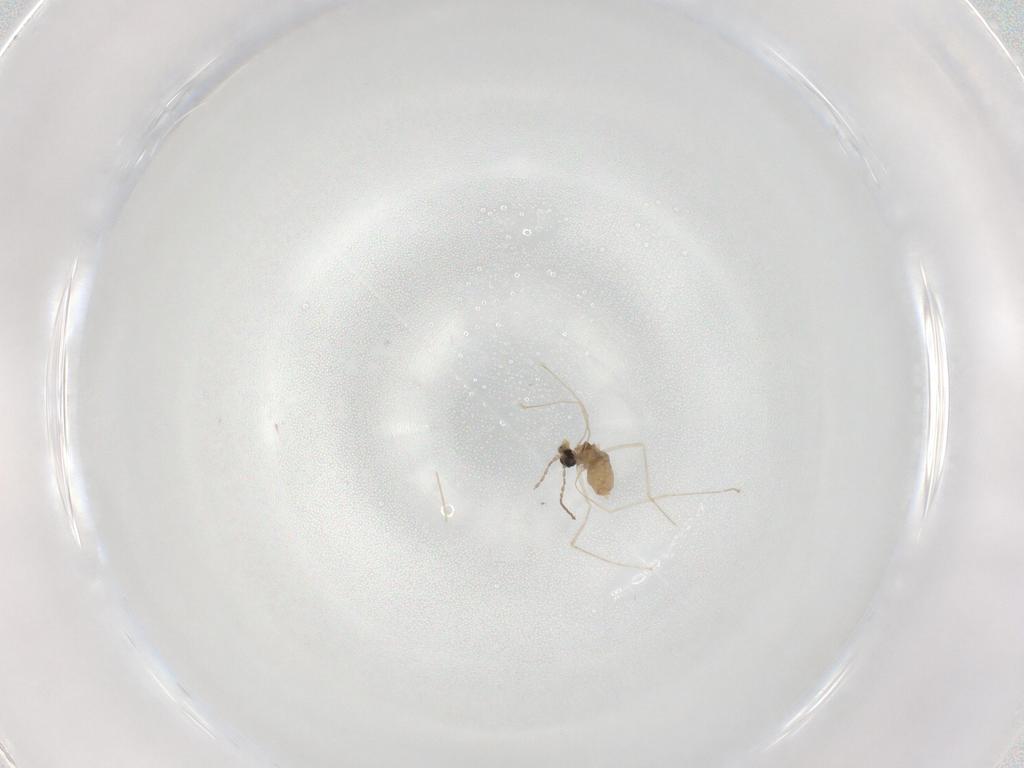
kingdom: Animalia
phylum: Arthropoda
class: Insecta
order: Diptera
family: Cecidomyiidae
